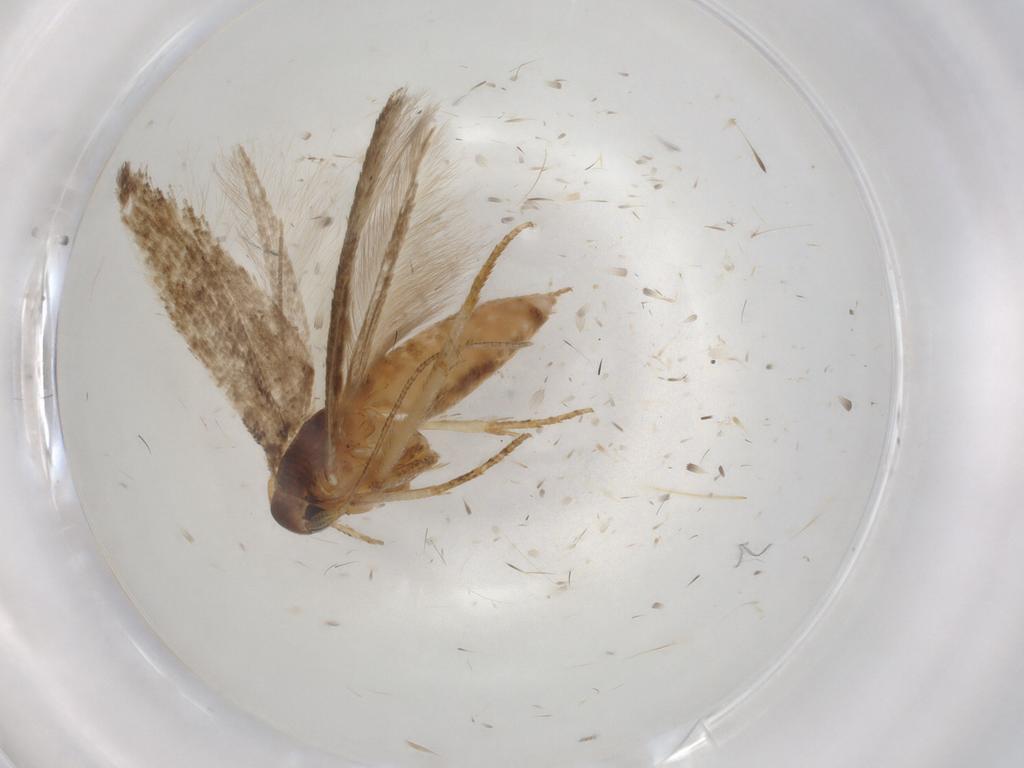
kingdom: Animalia
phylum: Arthropoda
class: Insecta
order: Lepidoptera
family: Cosmopterigidae
